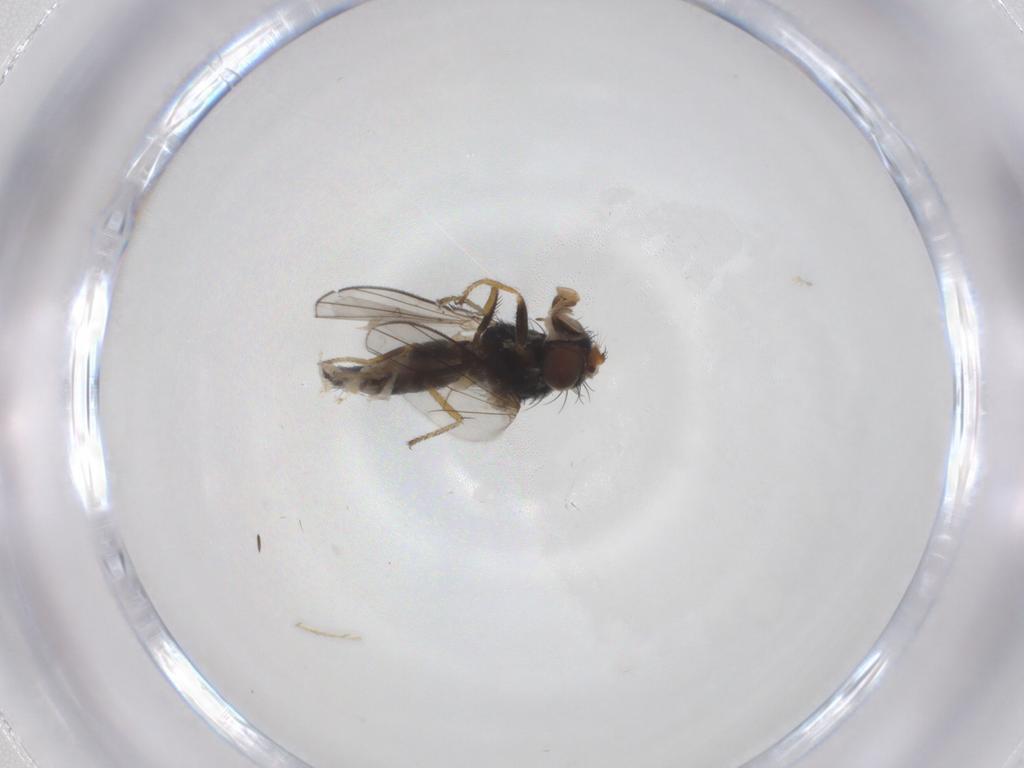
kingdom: Animalia
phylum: Arthropoda
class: Insecta
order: Diptera
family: Ephydridae
